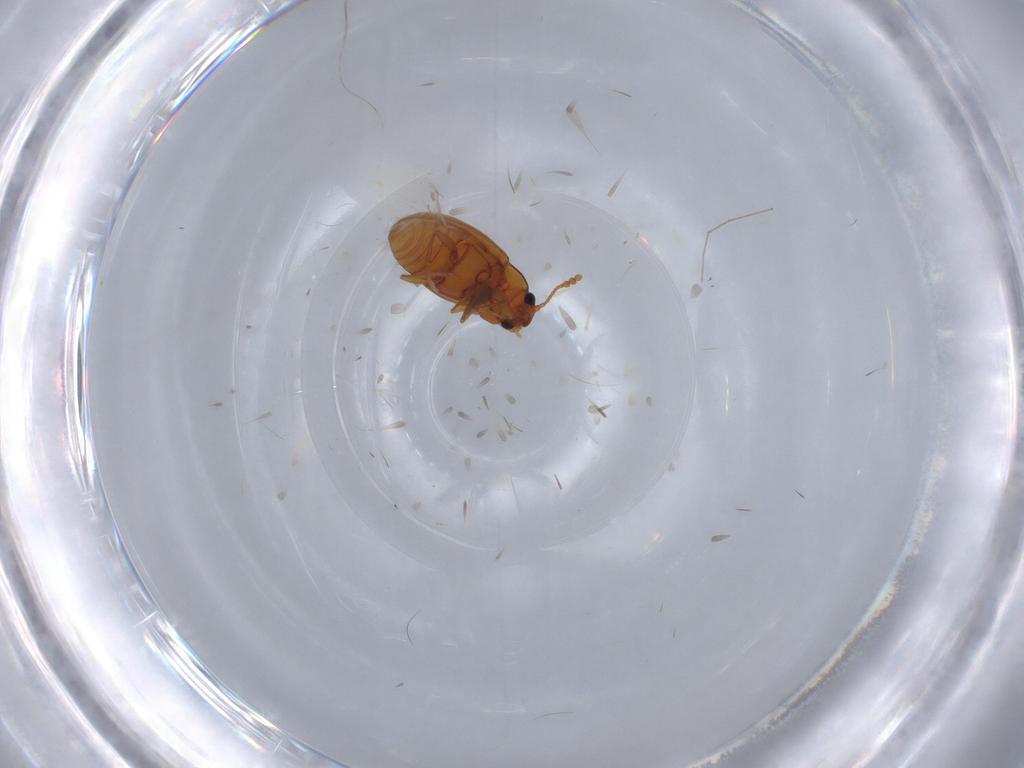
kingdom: Animalia
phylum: Arthropoda
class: Insecta
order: Coleoptera
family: Erotylidae
